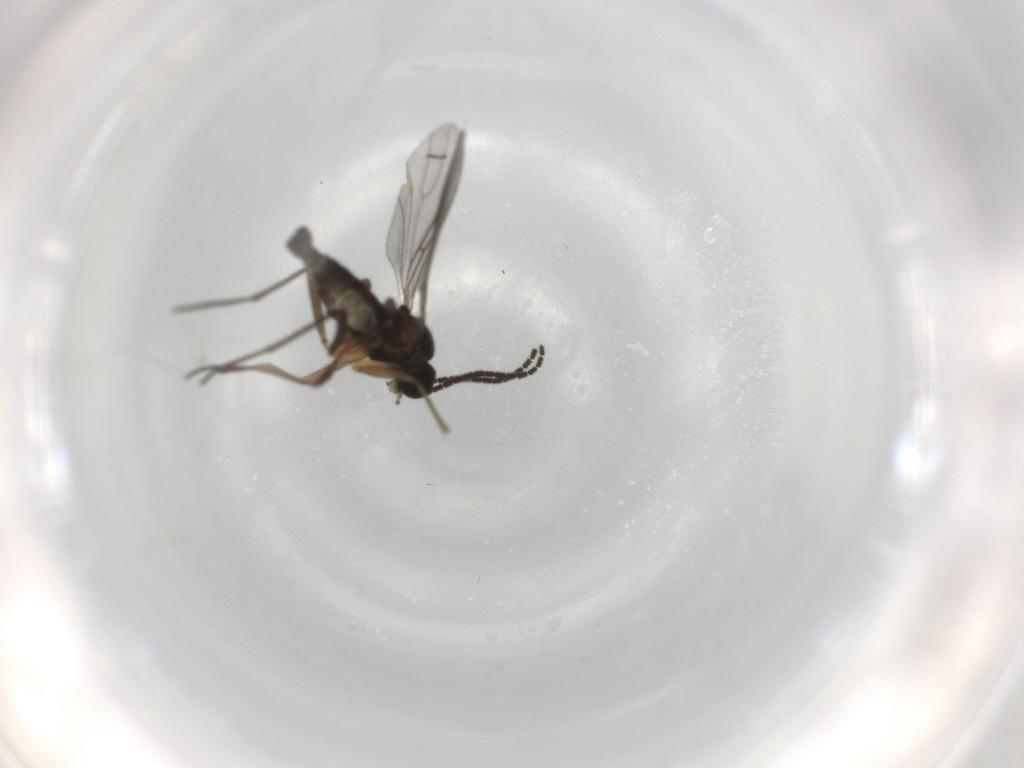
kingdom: Animalia
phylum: Arthropoda
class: Insecta
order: Diptera
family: Sciaridae
